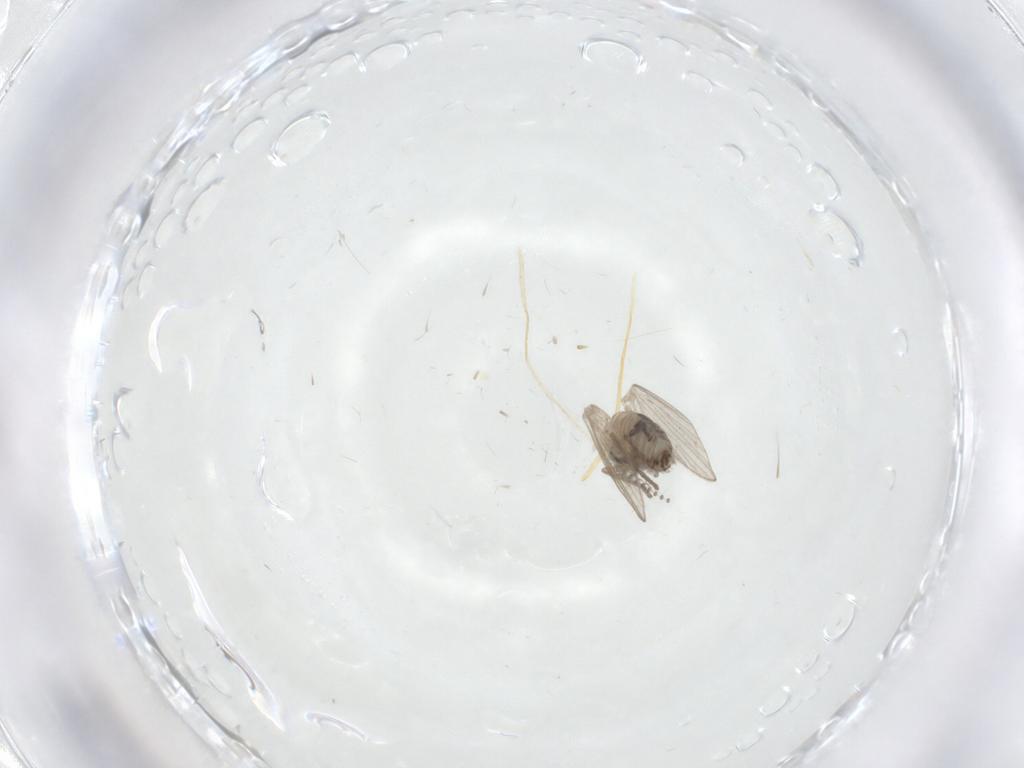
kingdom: Animalia
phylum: Arthropoda
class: Insecta
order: Diptera
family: Psychodidae
